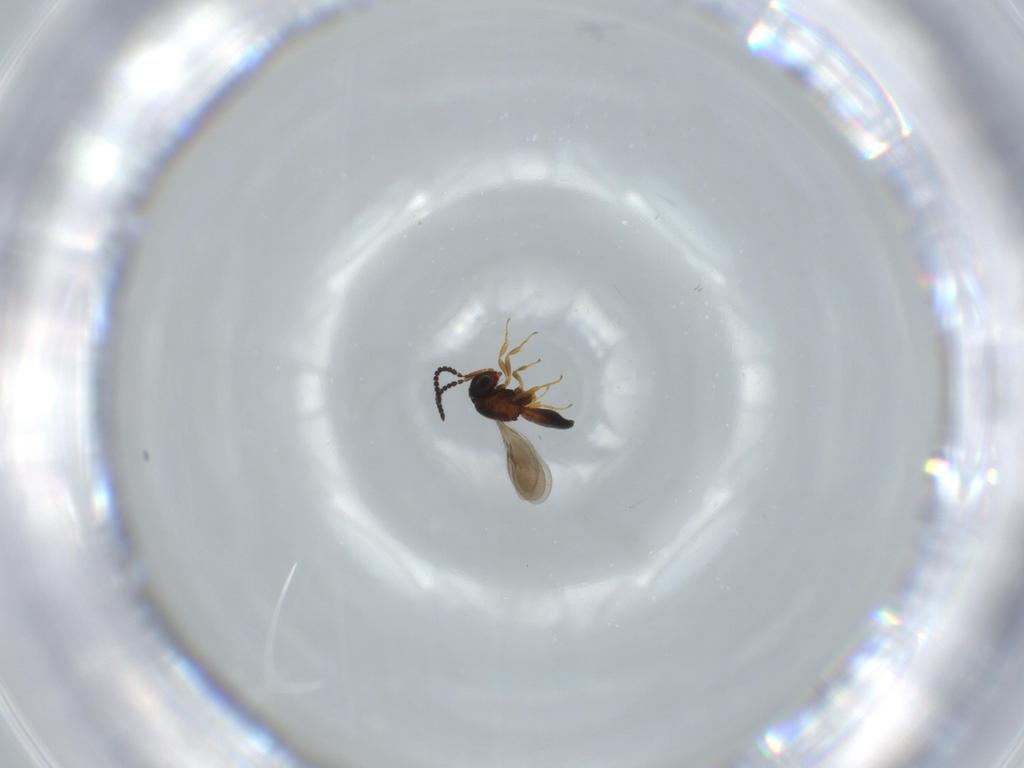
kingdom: Animalia
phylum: Arthropoda
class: Insecta
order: Hymenoptera
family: Scelionidae
